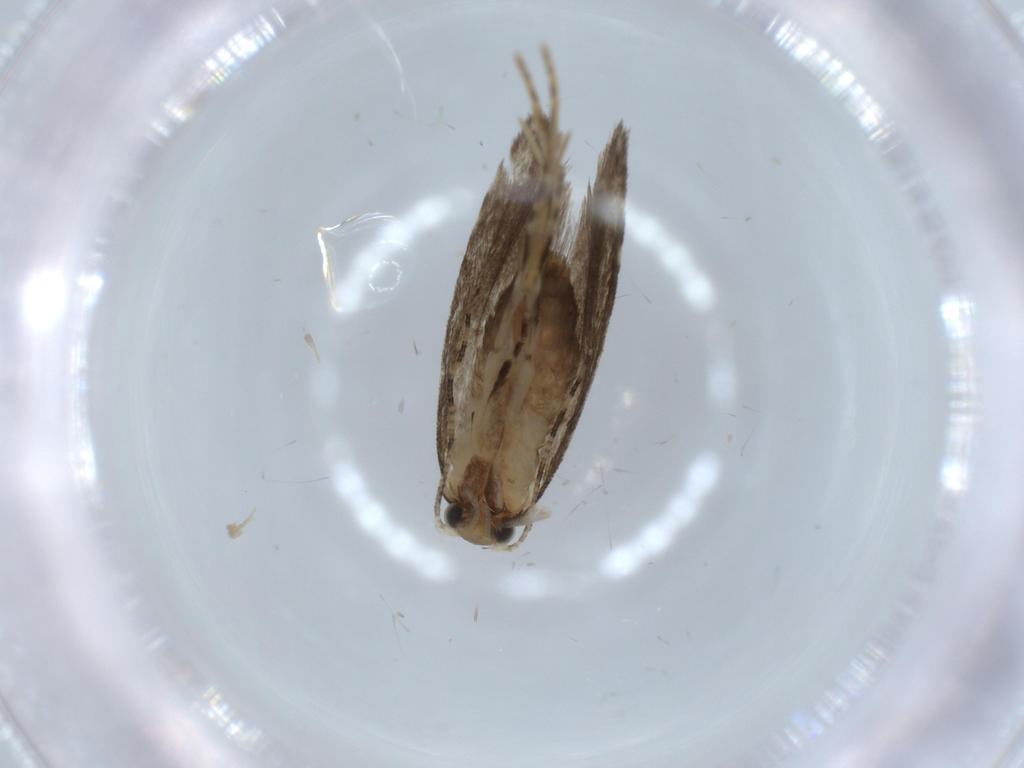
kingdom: Animalia
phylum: Arthropoda
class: Insecta
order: Lepidoptera
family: Tineidae
